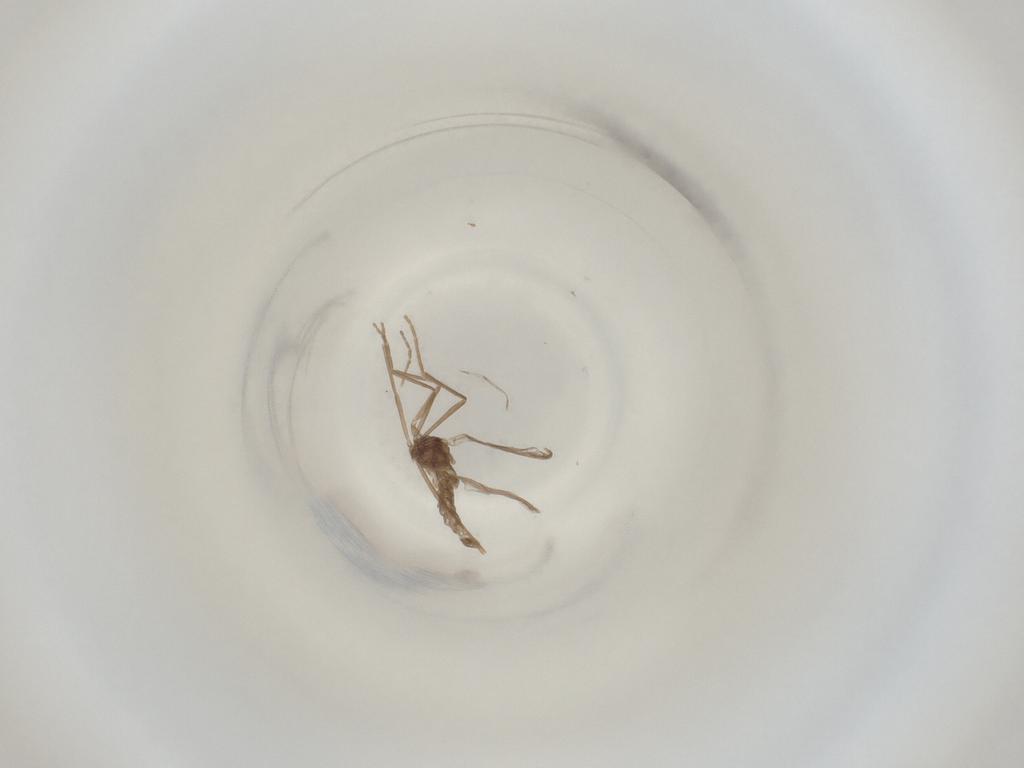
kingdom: Animalia
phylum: Arthropoda
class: Insecta
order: Diptera
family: Cecidomyiidae
